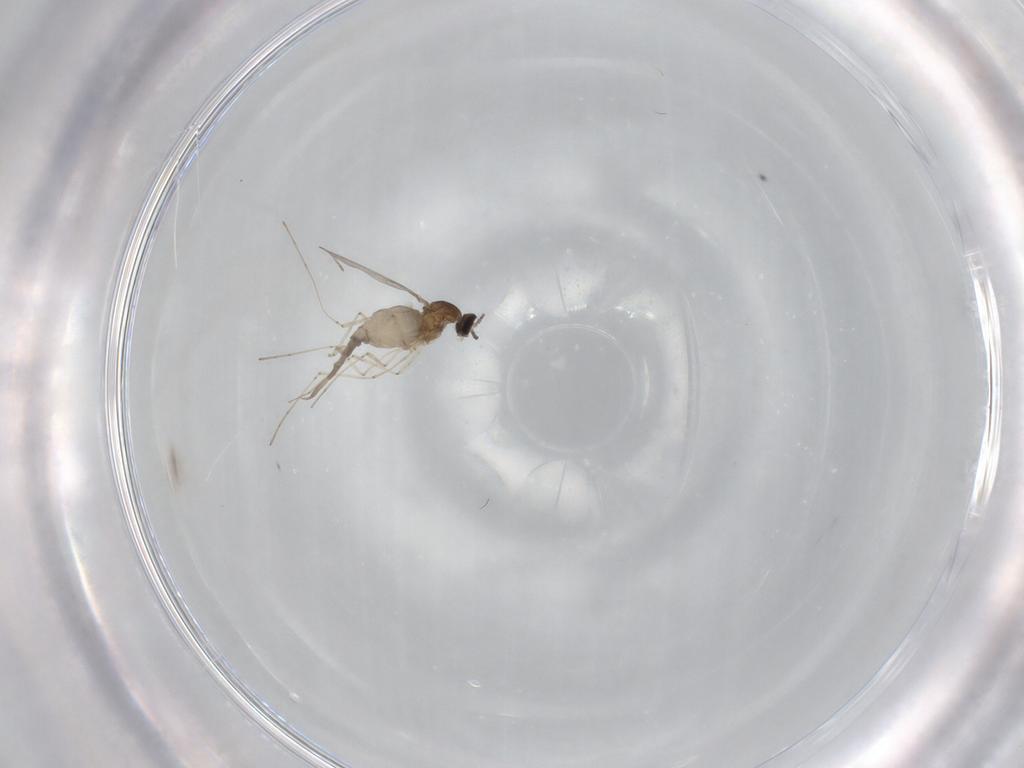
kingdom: Animalia
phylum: Arthropoda
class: Insecta
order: Diptera
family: Cecidomyiidae
